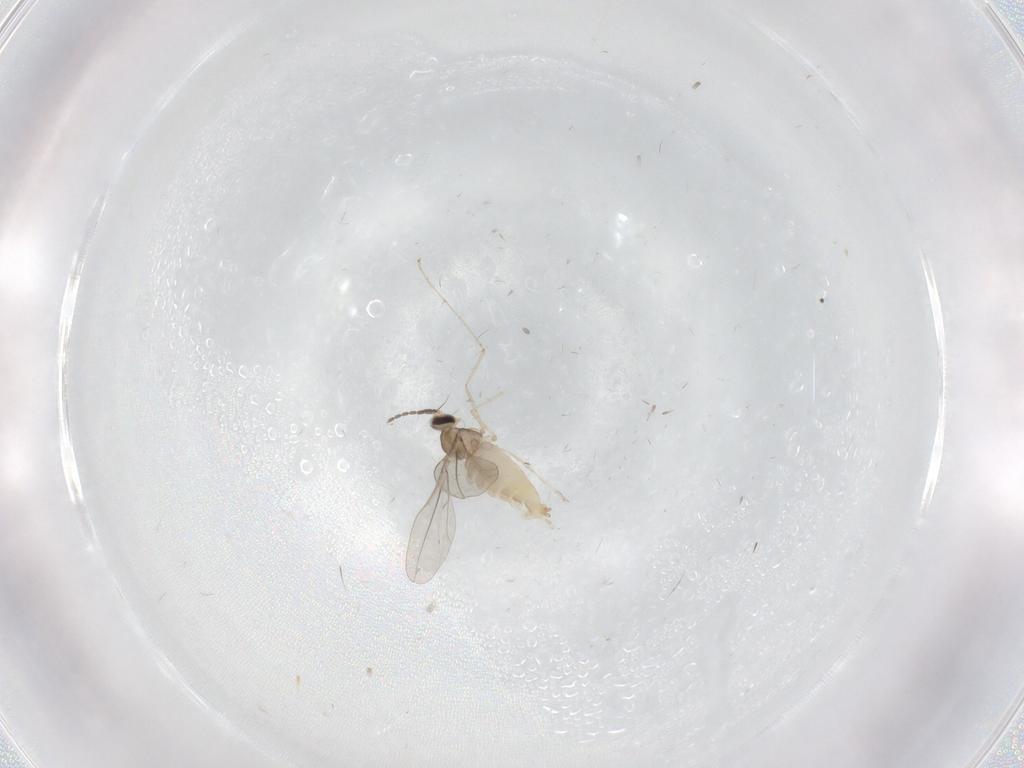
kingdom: Animalia
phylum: Arthropoda
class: Insecta
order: Diptera
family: Cecidomyiidae
